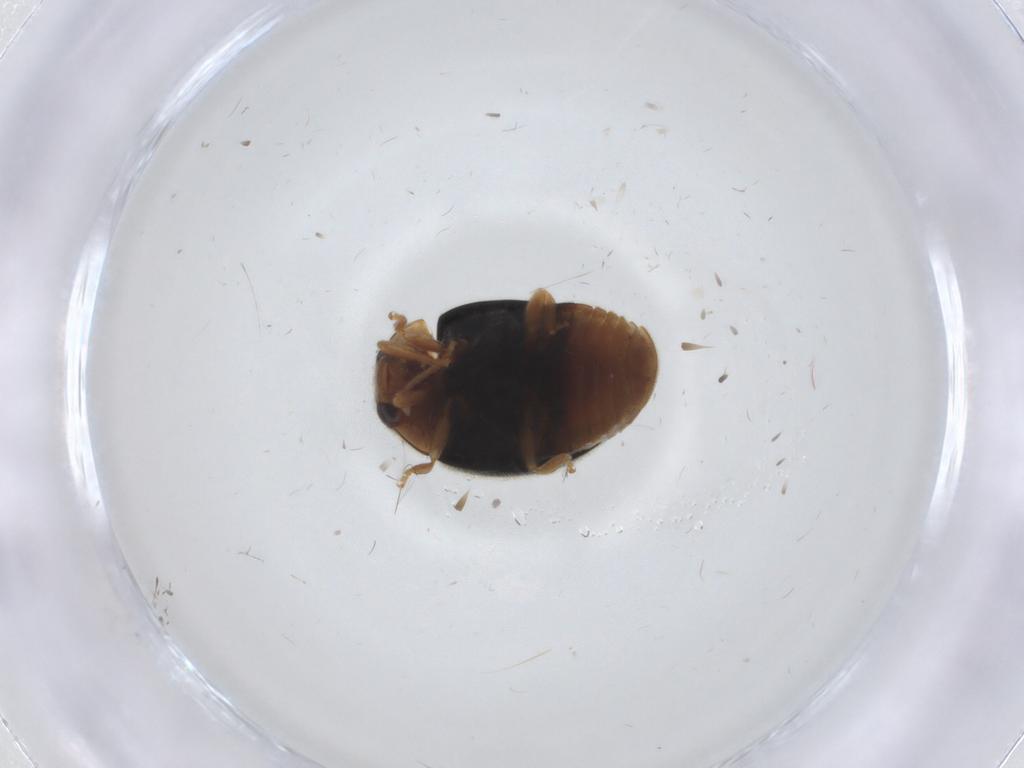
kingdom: Animalia
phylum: Arthropoda
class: Insecta
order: Coleoptera
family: Coccinellidae
